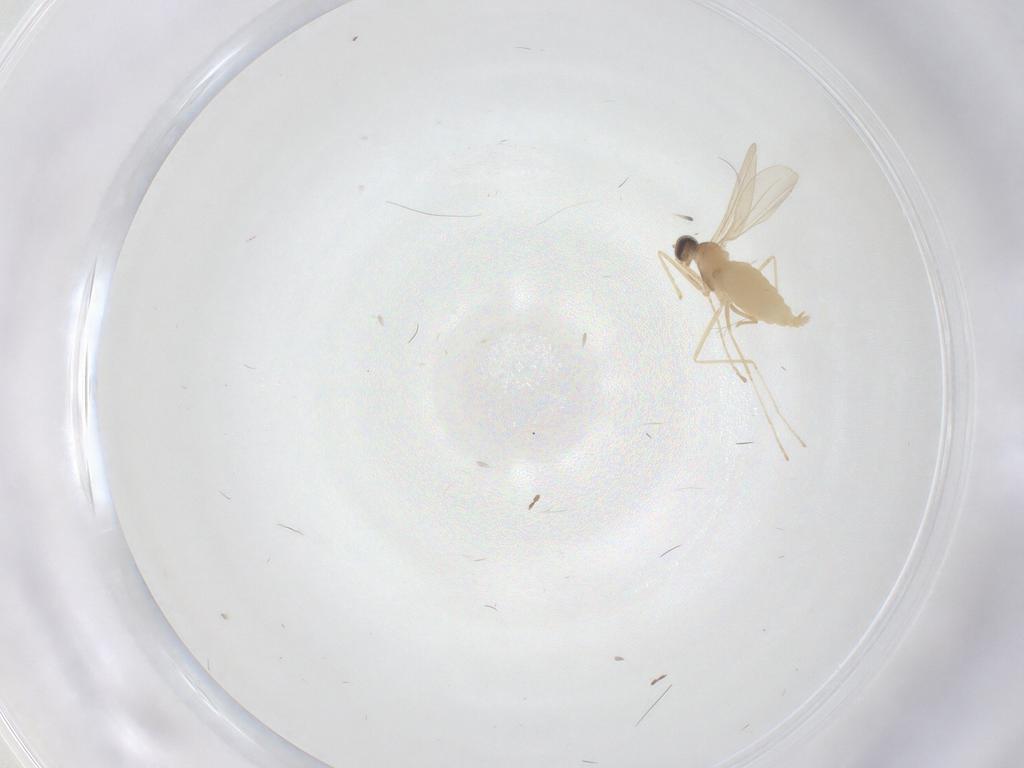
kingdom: Animalia
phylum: Arthropoda
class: Insecta
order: Diptera
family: Cecidomyiidae
